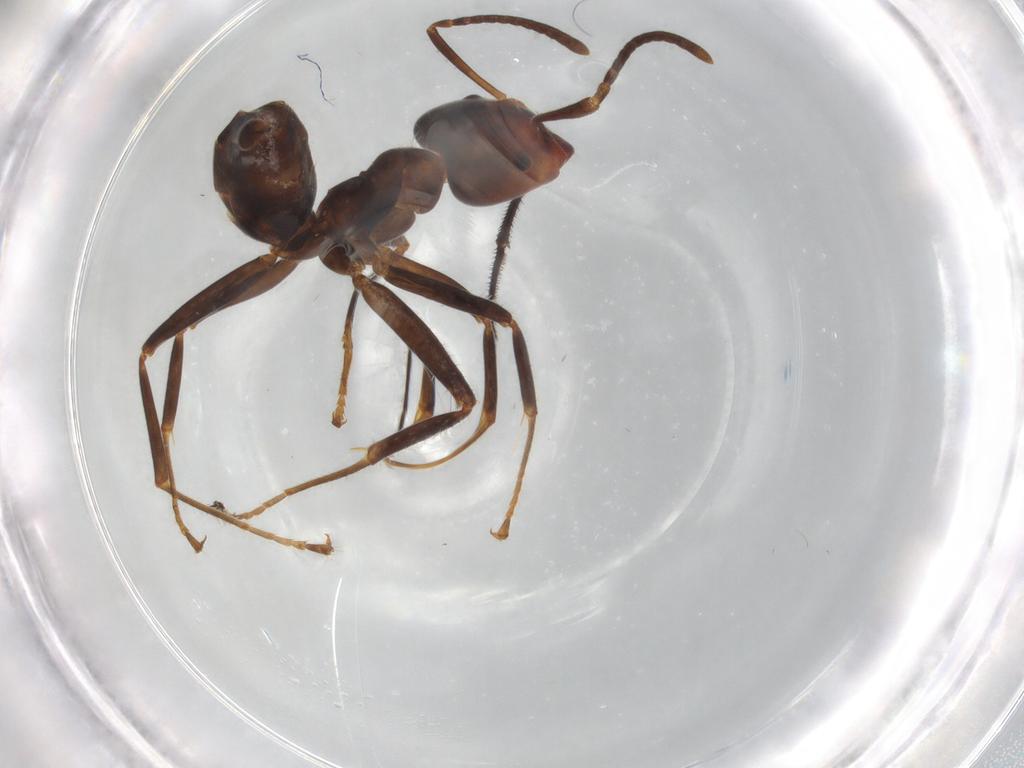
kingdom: Animalia
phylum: Arthropoda
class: Insecta
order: Hymenoptera
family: Formicidae
